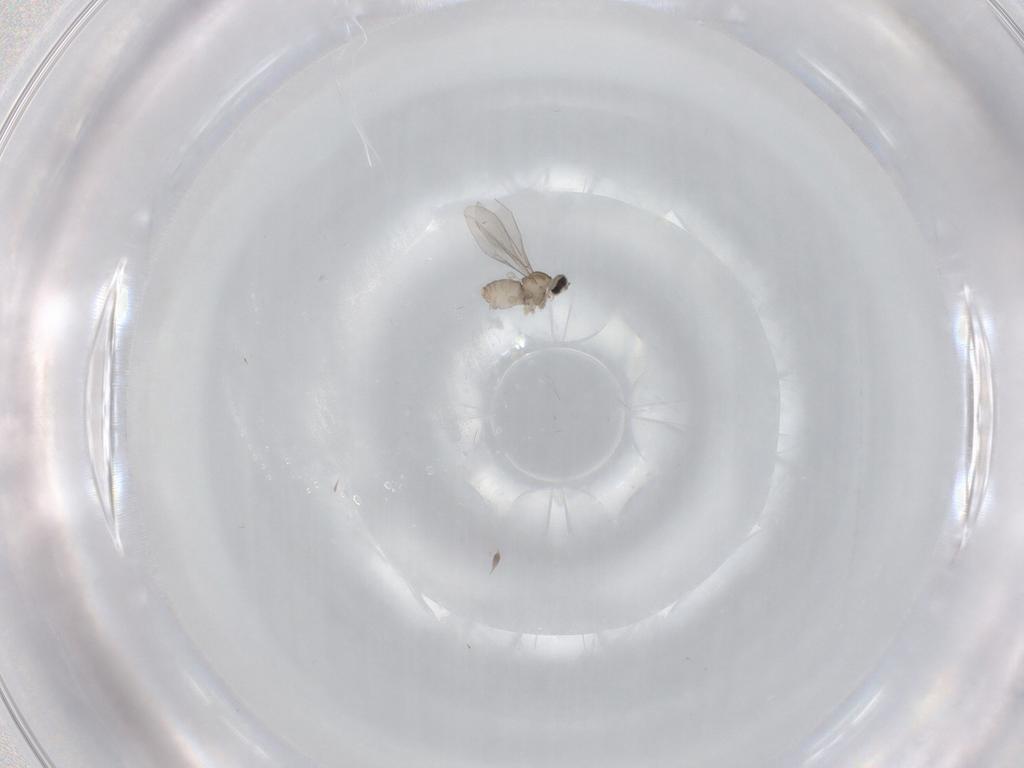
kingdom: Animalia
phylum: Arthropoda
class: Insecta
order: Diptera
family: Cecidomyiidae
